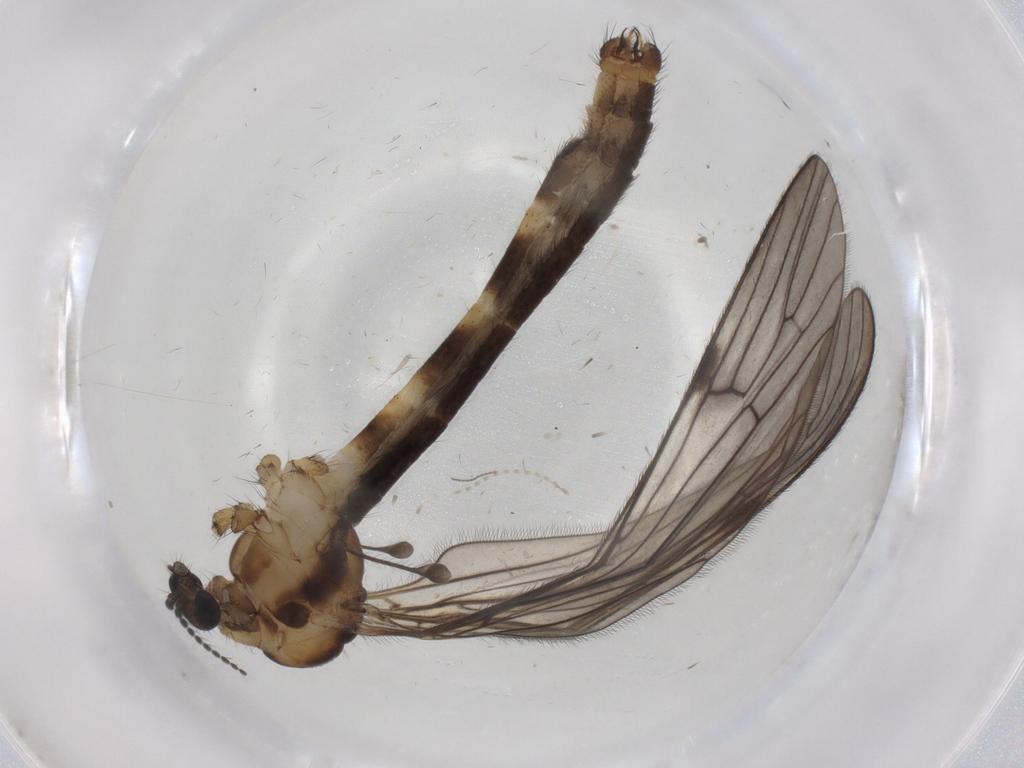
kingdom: Animalia
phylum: Arthropoda
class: Insecta
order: Diptera
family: Limoniidae
